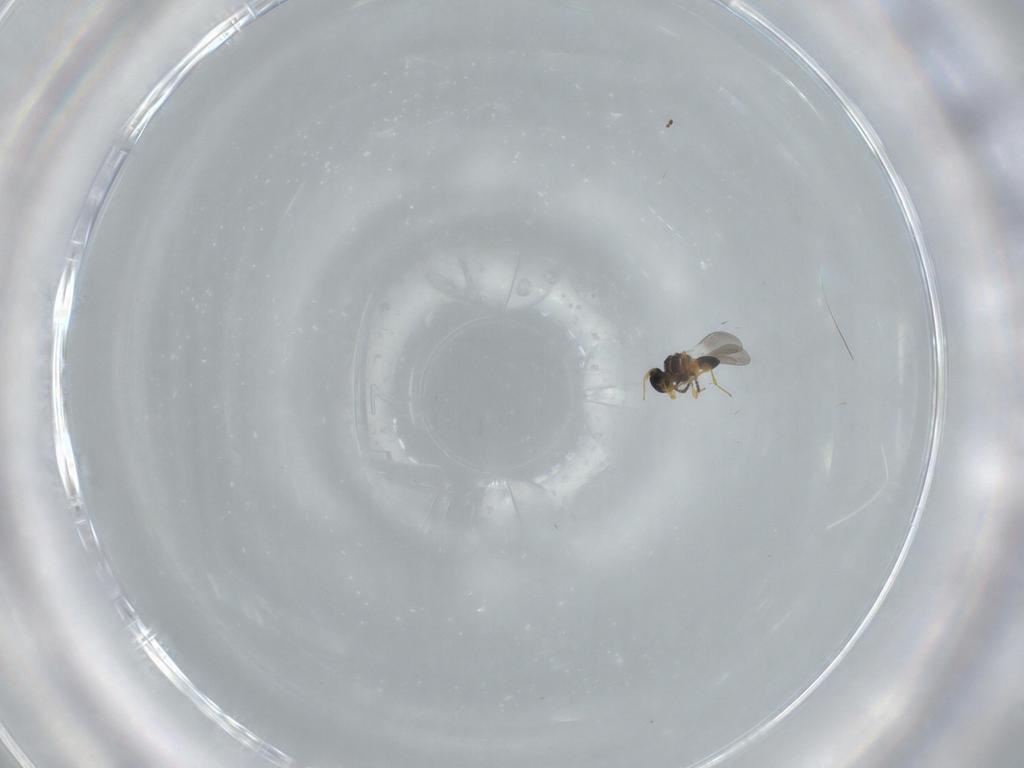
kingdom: Animalia
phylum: Arthropoda
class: Insecta
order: Hymenoptera
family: Platygastridae
